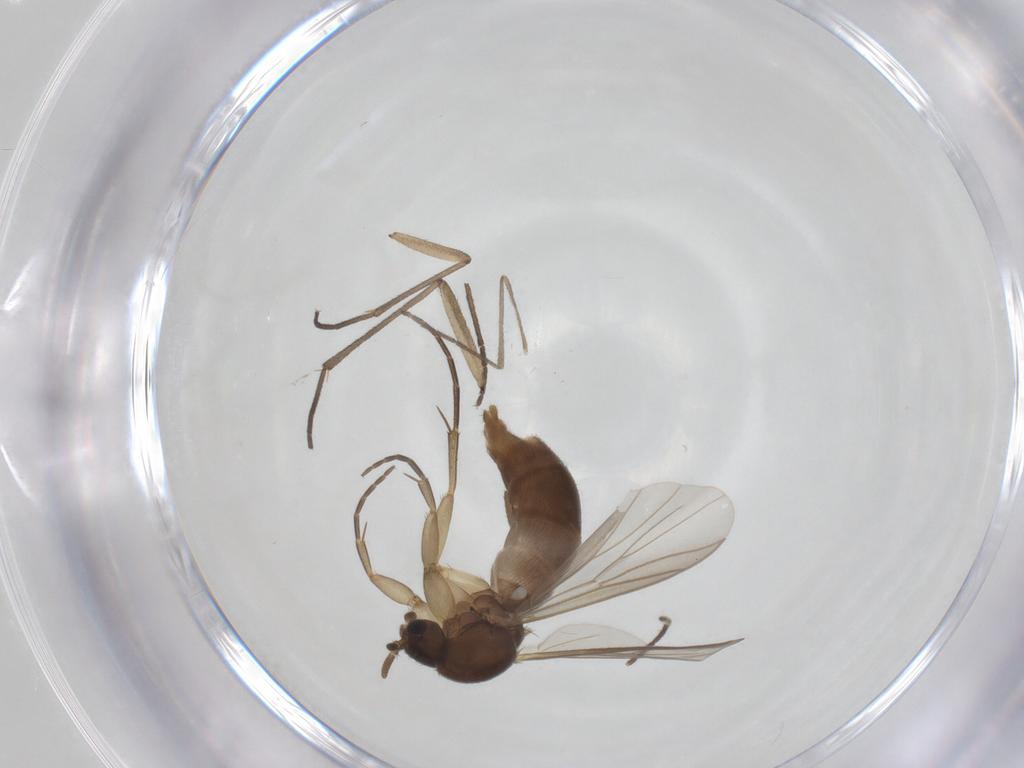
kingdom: Animalia
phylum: Arthropoda
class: Insecta
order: Diptera
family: Mycetophilidae
